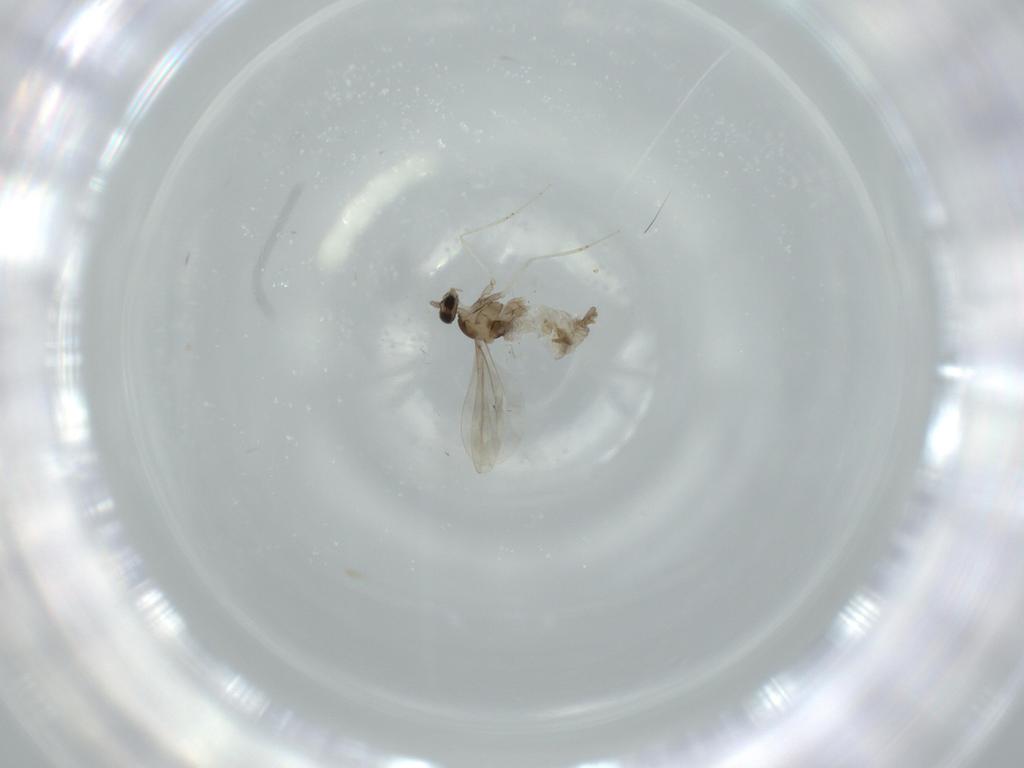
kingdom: Animalia
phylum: Arthropoda
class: Insecta
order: Diptera
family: Cecidomyiidae
